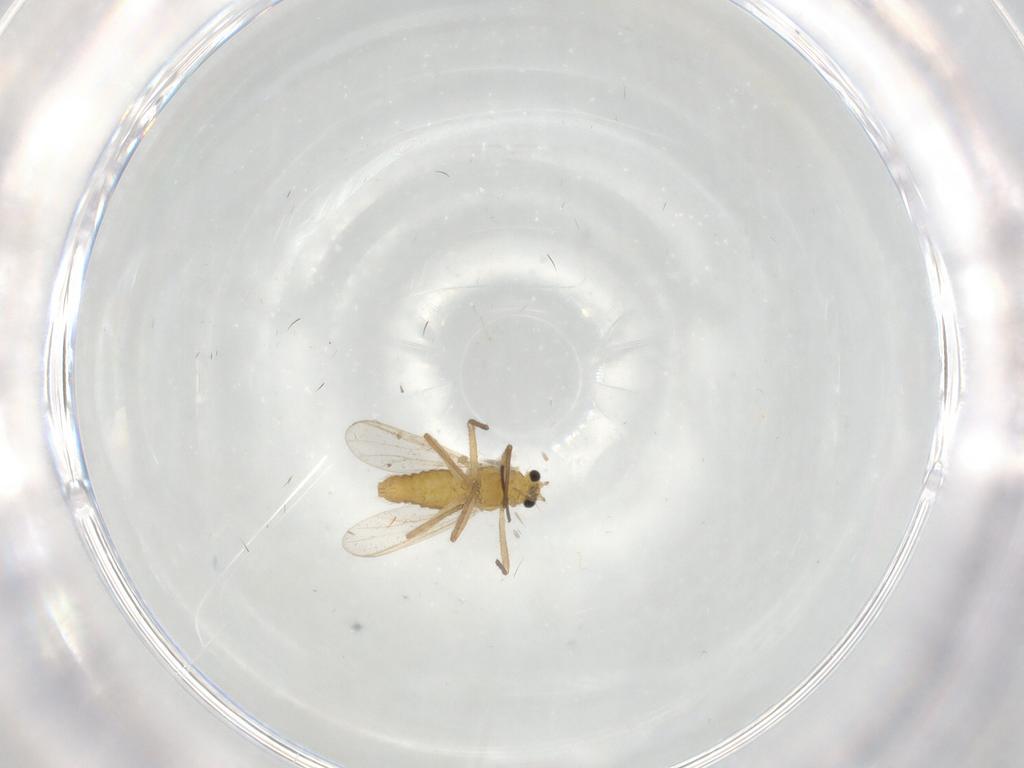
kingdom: Animalia
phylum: Arthropoda
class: Insecta
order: Diptera
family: Chironomidae
